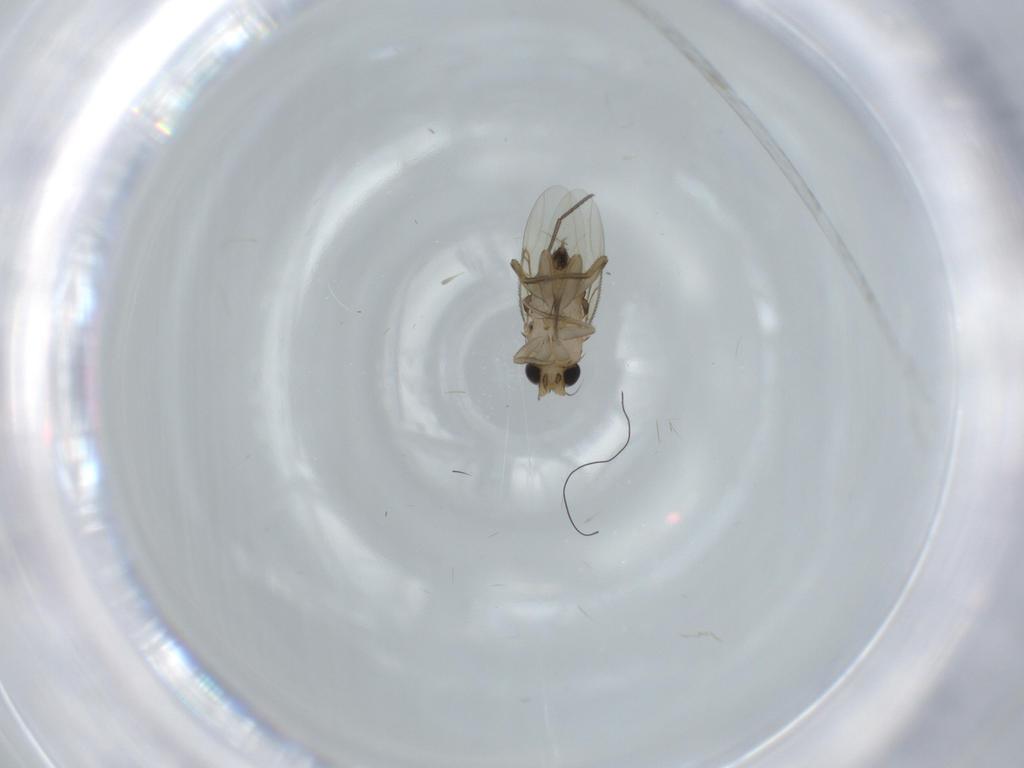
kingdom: Animalia
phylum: Arthropoda
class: Insecta
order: Diptera
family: Phoridae
